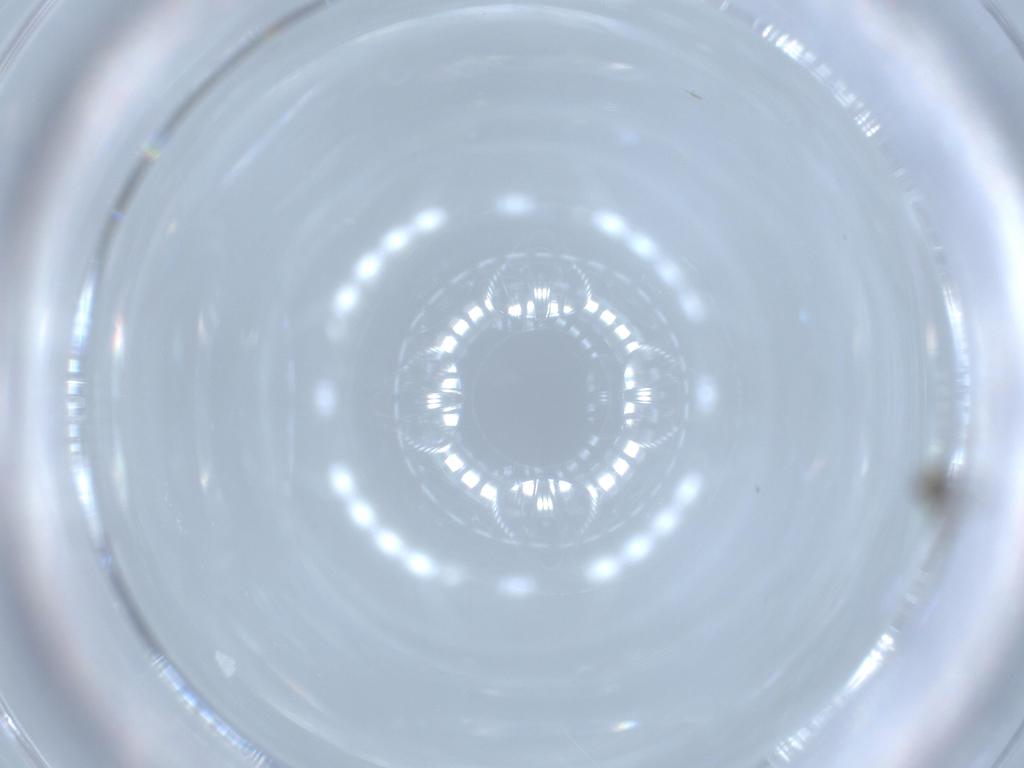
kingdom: Animalia
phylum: Arthropoda
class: Insecta
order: Diptera
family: Cecidomyiidae
